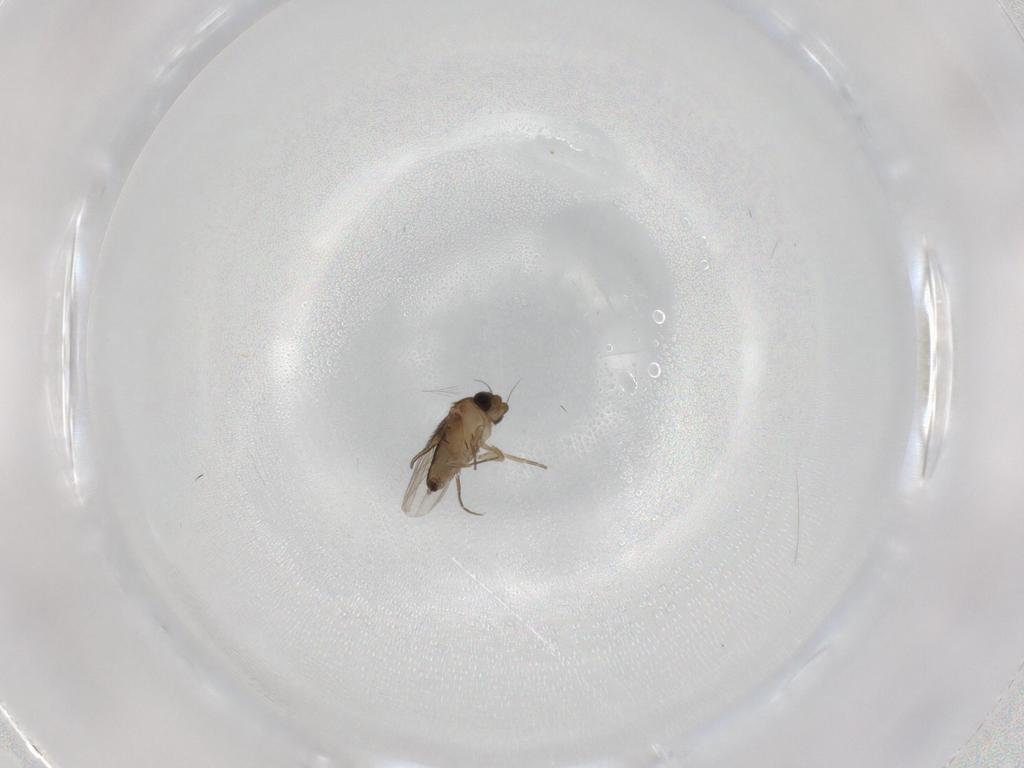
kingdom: Animalia
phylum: Arthropoda
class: Insecta
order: Diptera
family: Phoridae
